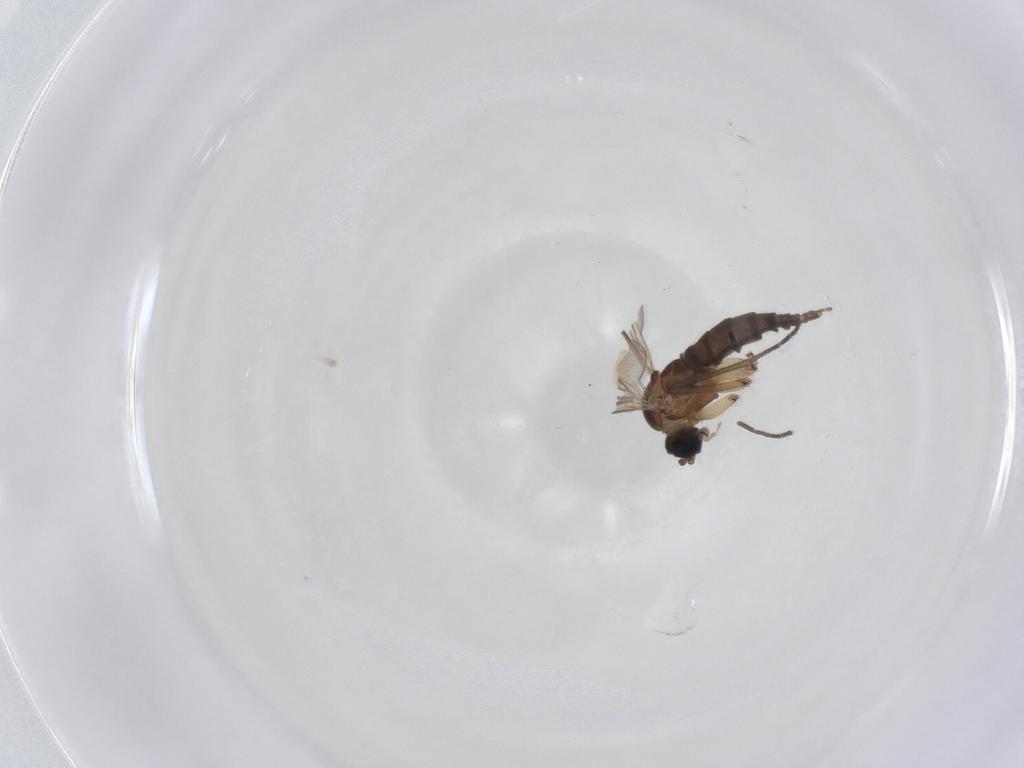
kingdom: Animalia
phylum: Arthropoda
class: Insecta
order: Diptera
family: Sciaridae
